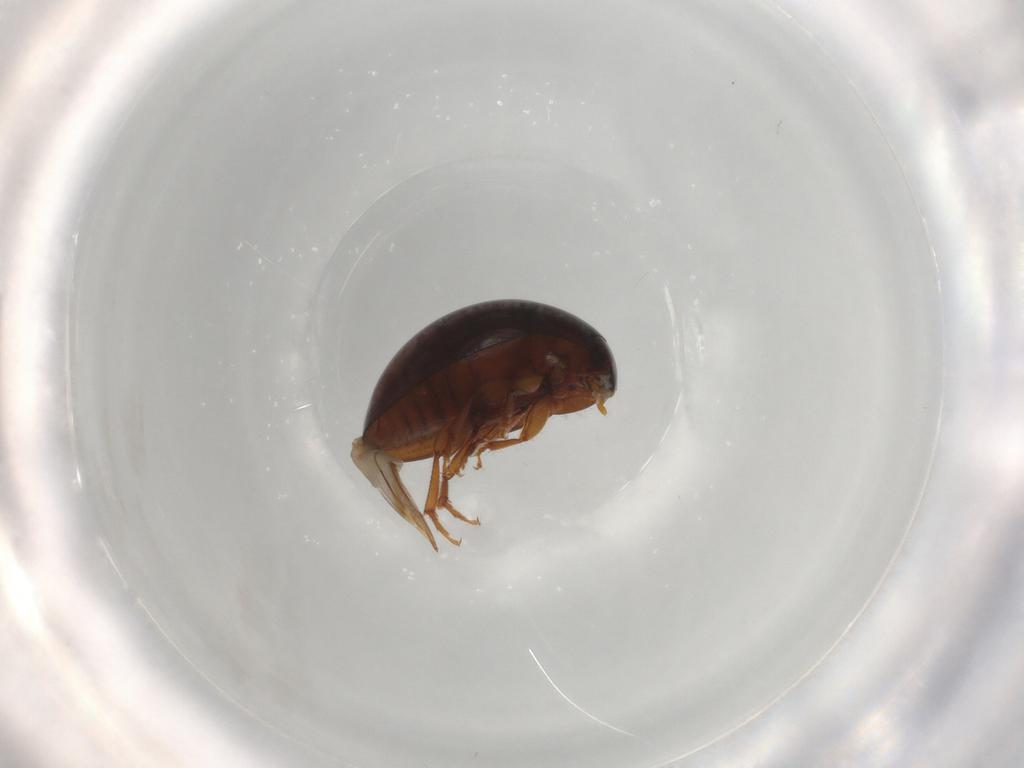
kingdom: Animalia
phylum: Arthropoda
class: Insecta
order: Coleoptera
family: Phalacridae
